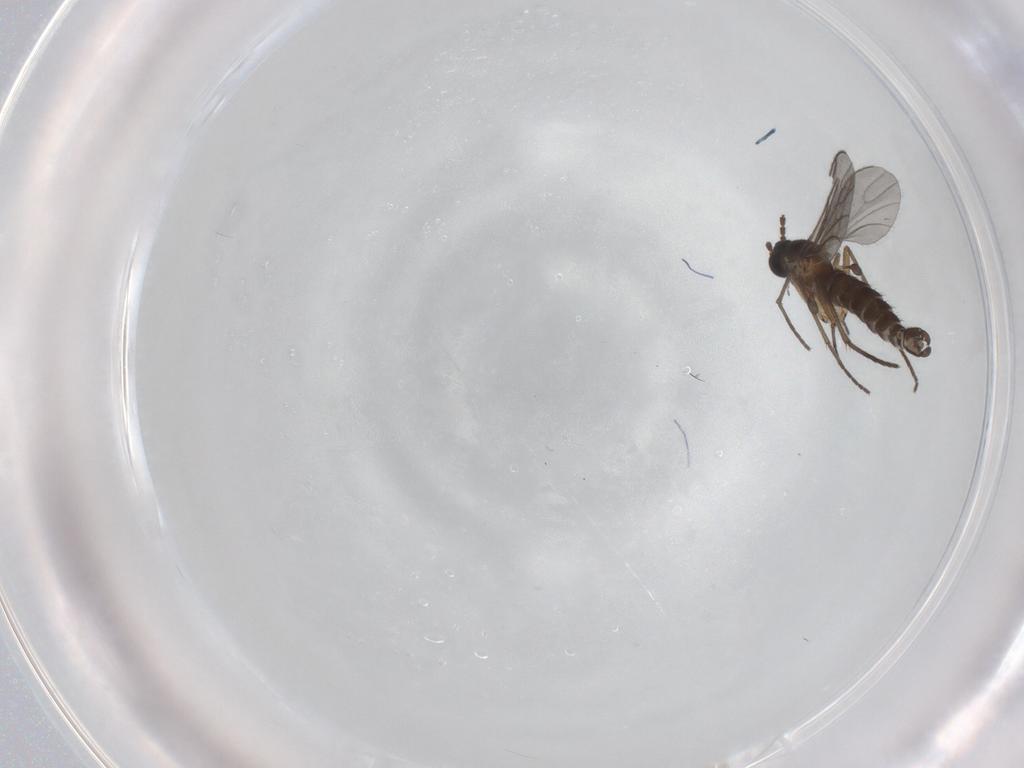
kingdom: Animalia
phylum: Arthropoda
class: Insecta
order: Diptera
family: Sciaridae
